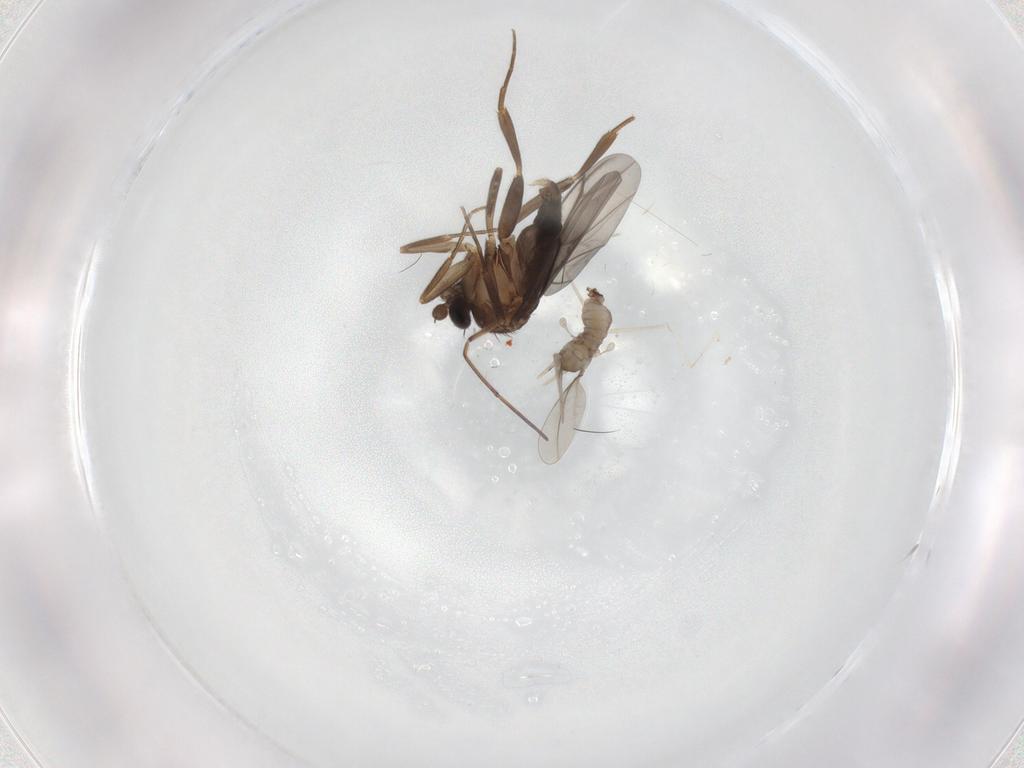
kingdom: Animalia
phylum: Arthropoda
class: Insecta
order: Diptera
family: Cecidomyiidae
